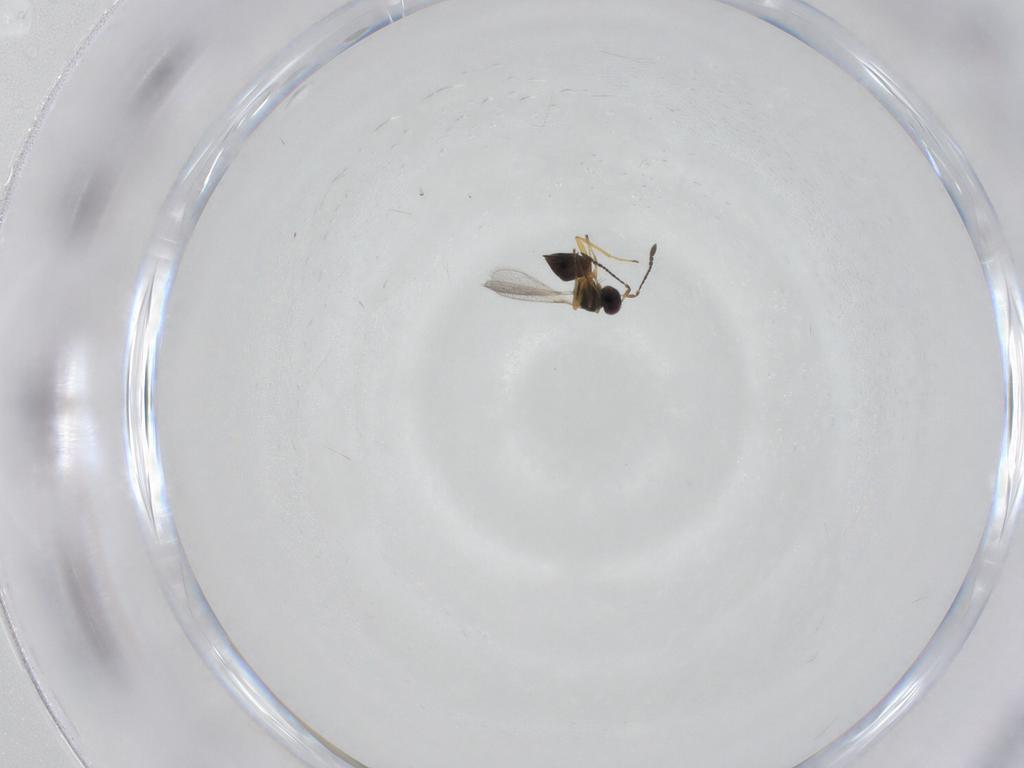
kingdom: Animalia
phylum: Arthropoda
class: Insecta
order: Hymenoptera
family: Mymaridae
